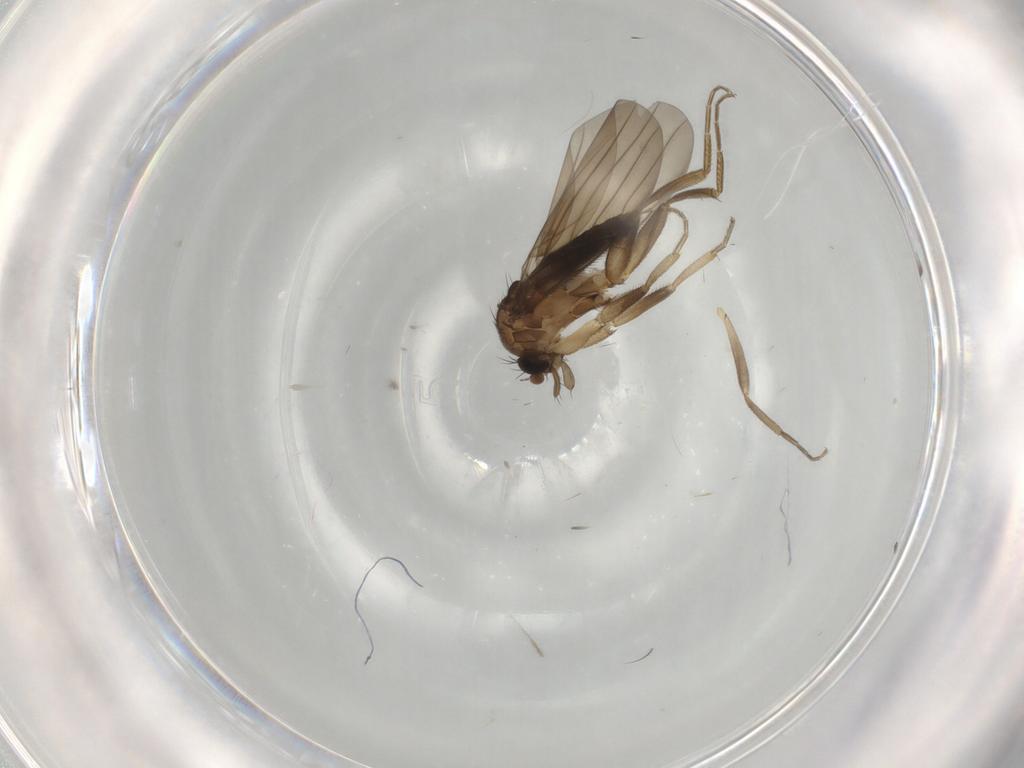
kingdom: Animalia
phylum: Arthropoda
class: Insecta
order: Diptera
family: Phoridae
